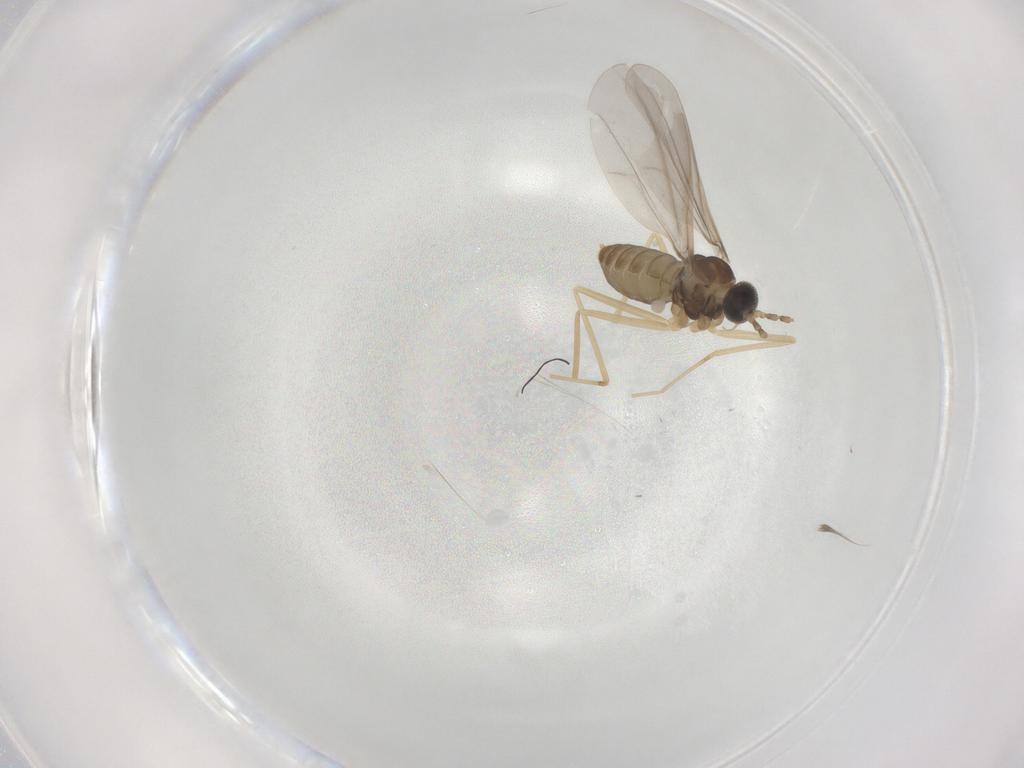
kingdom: Animalia
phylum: Arthropoda
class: Insecta
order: Diptera
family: Cecidomyiidae
